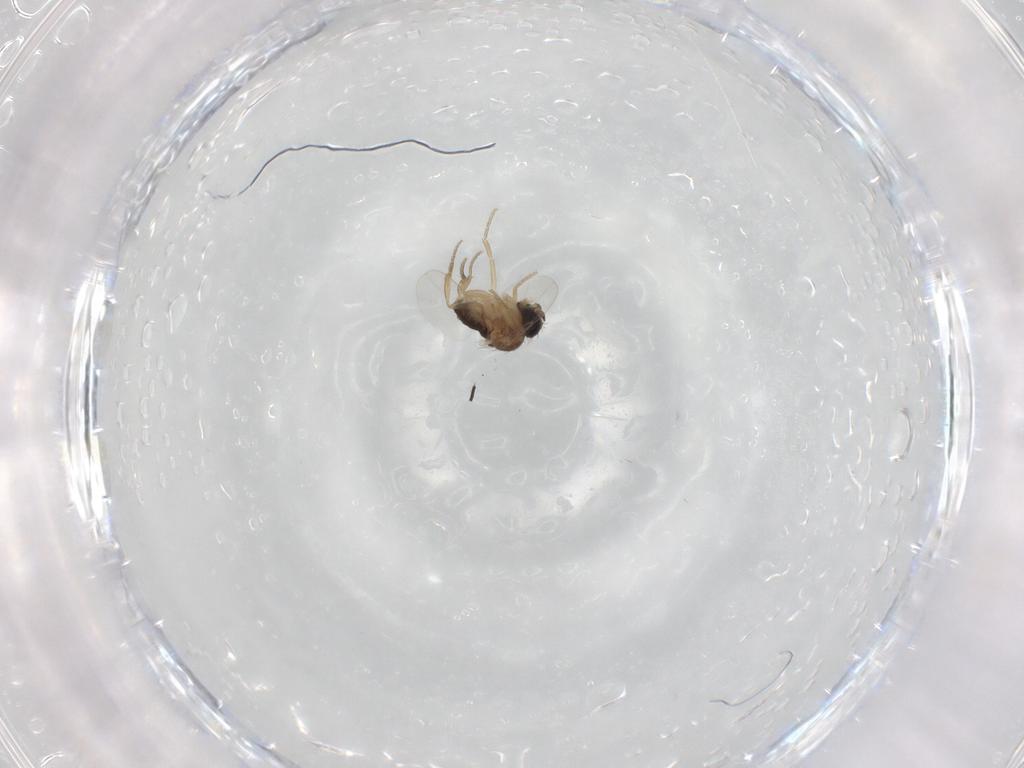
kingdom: Animalia
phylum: Arthropoda
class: Insecta
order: Diptera
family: Phoridae
